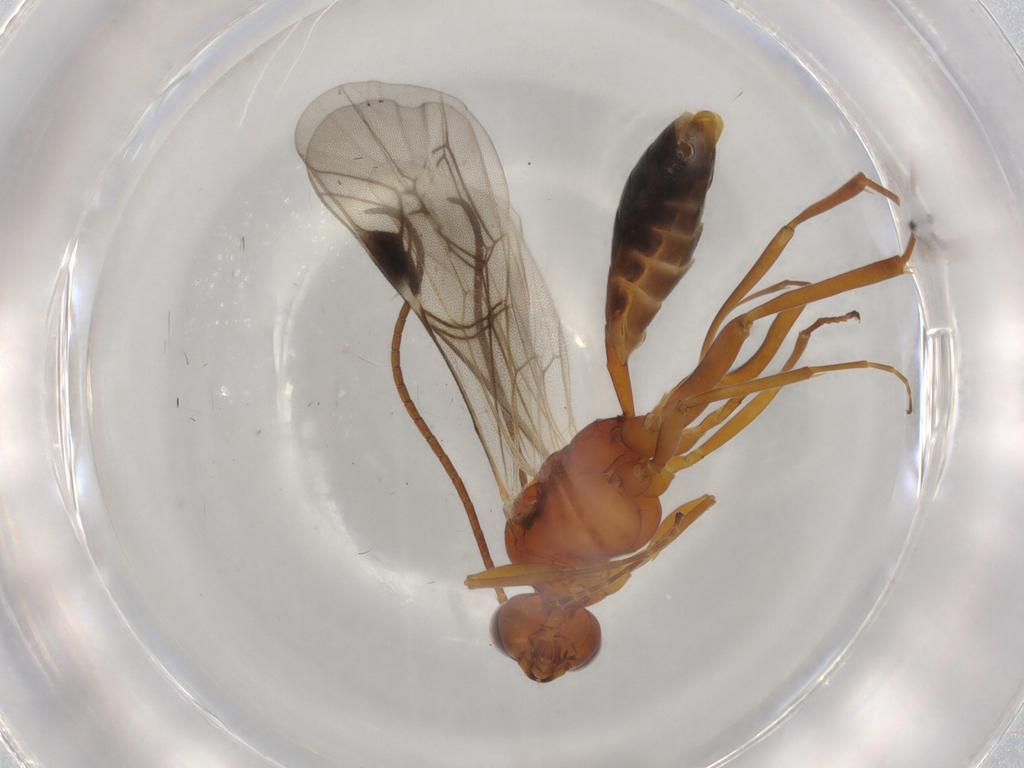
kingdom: Animalia
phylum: Arthropoda
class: Insecta
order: Hymenoptera
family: Ichneumonidae
